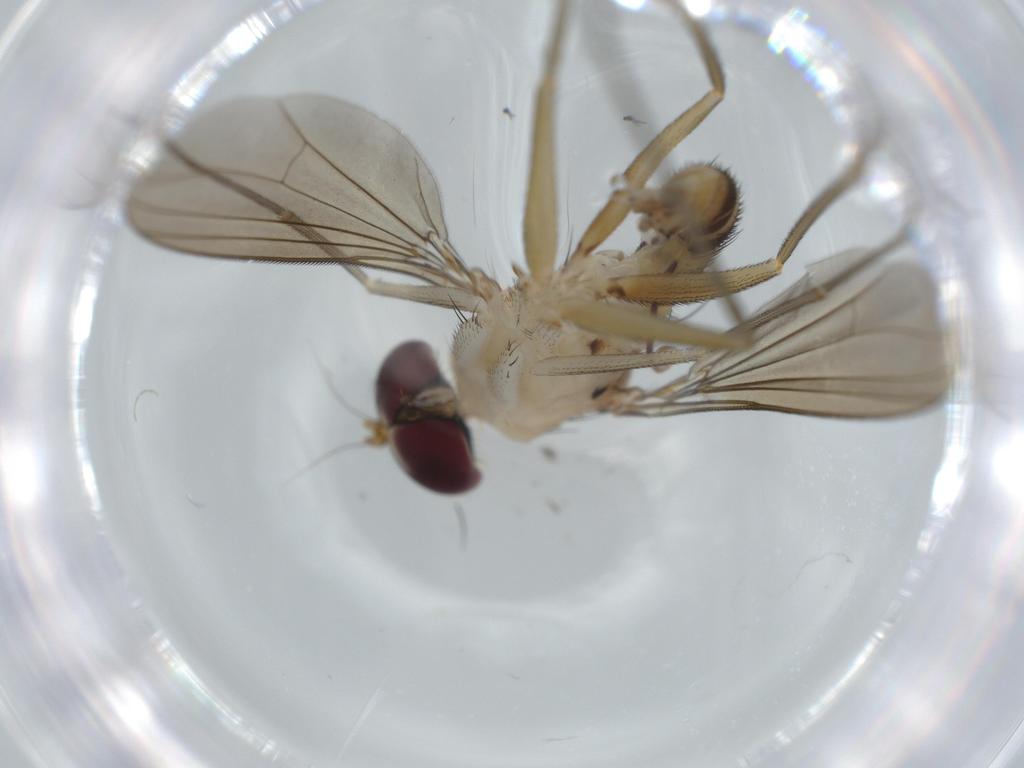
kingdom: Animalia
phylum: Arthropoda
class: Insecta
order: Diptera
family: Dolichopodidae
